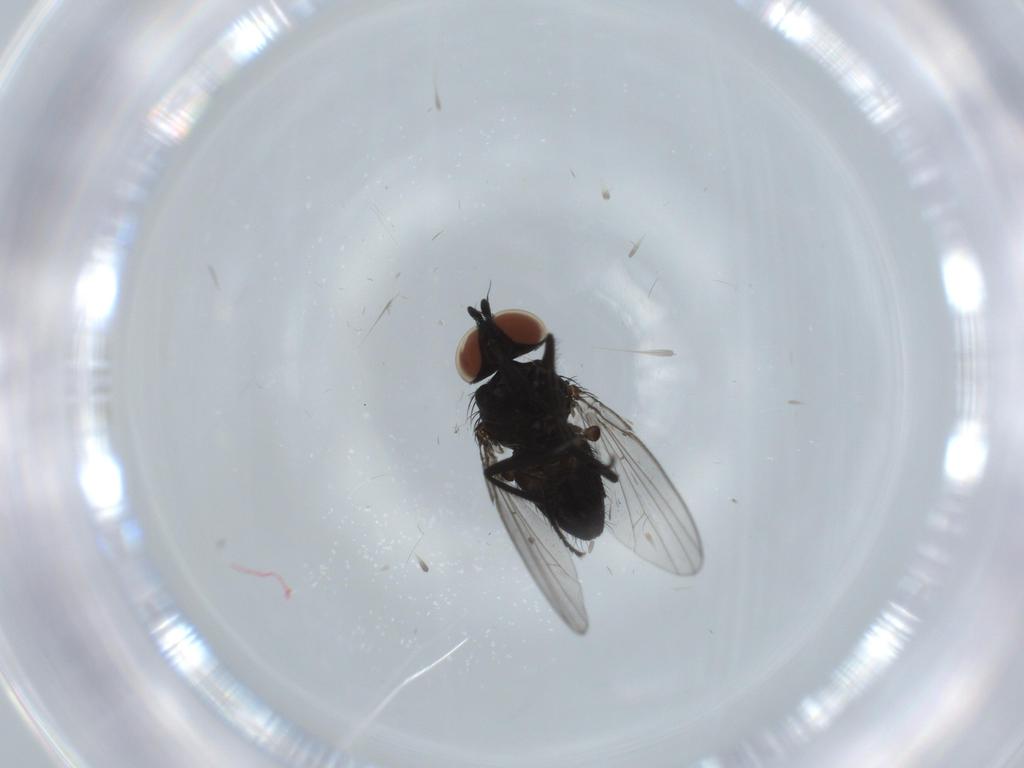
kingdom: Animalia
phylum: Arthropoda
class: Insecta
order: Diptera
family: Milichiidae
